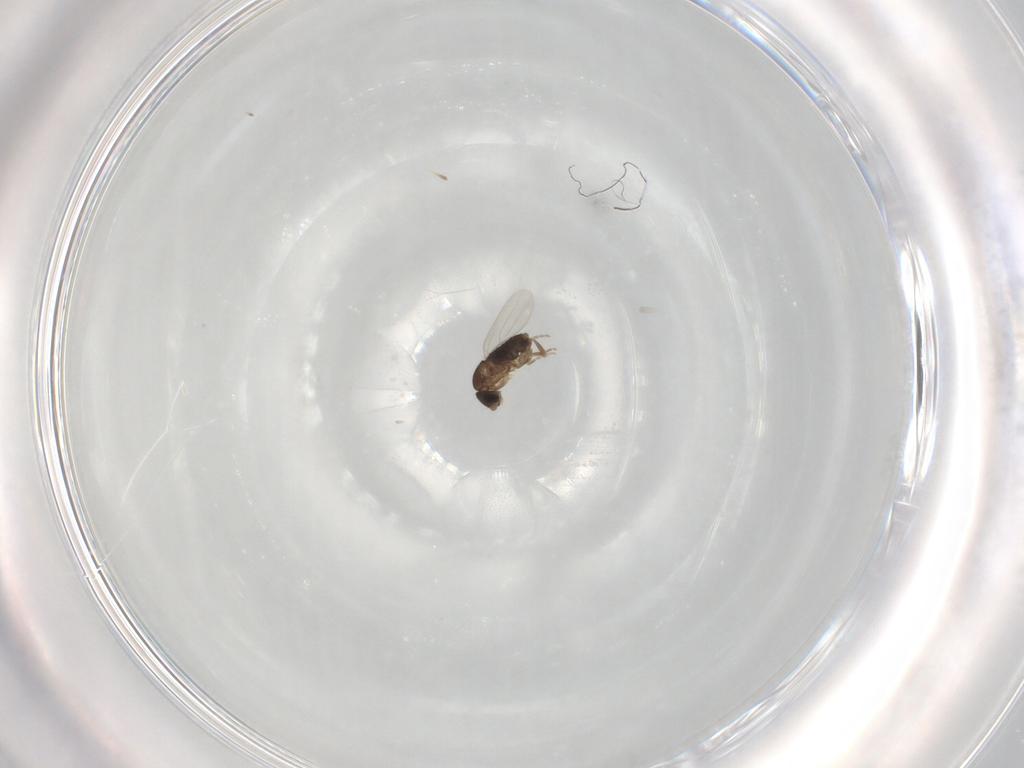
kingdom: Animalia
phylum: Arthropoda
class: Insecta
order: Diptera
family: Phoridae
